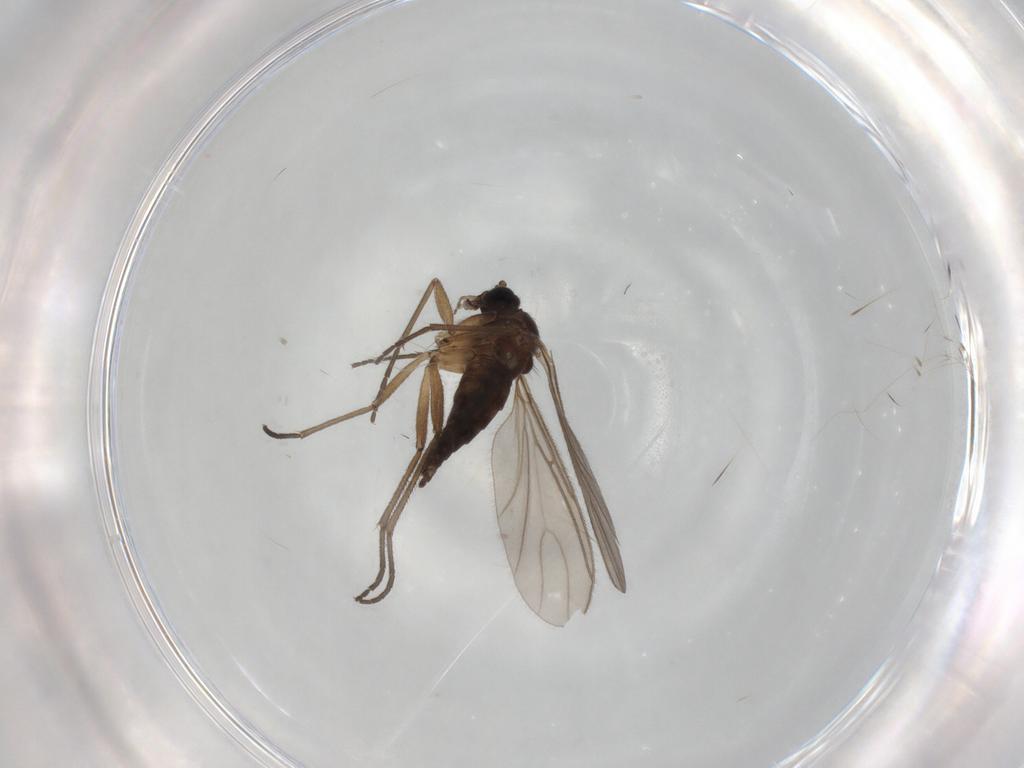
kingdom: Animalia
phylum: Arthropoda
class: Insecta
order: Diptera
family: Sciaridae
